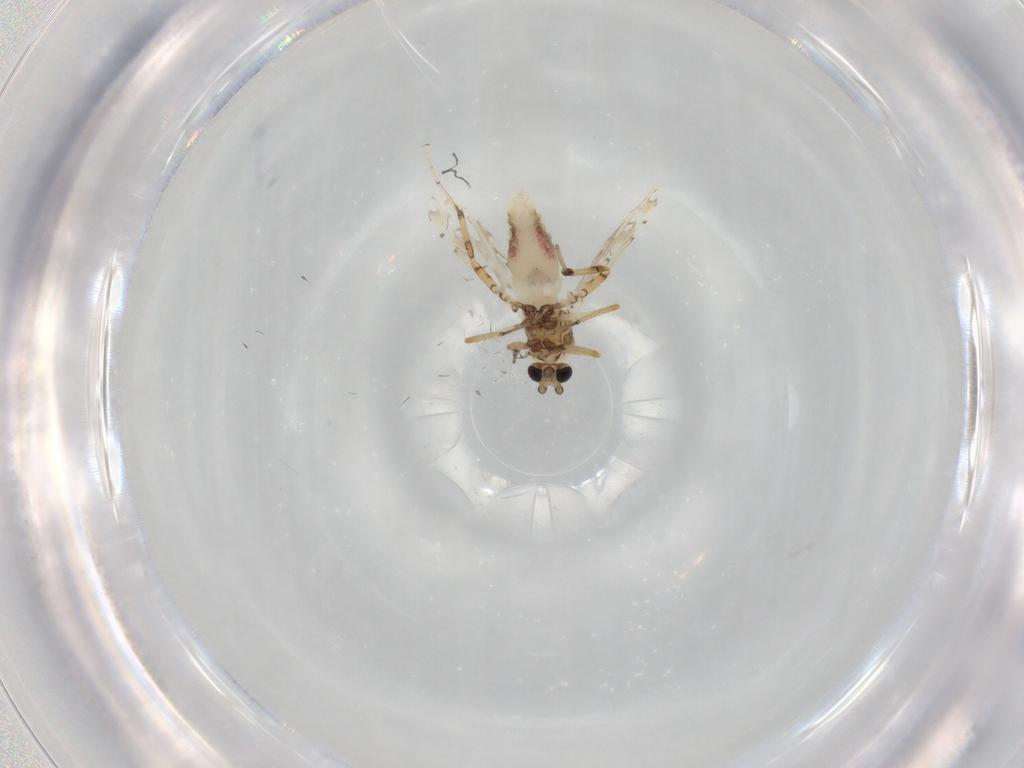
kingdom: Animalia
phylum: Arthropoda
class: Insecta
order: Diptera
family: Ceratopogonidae
